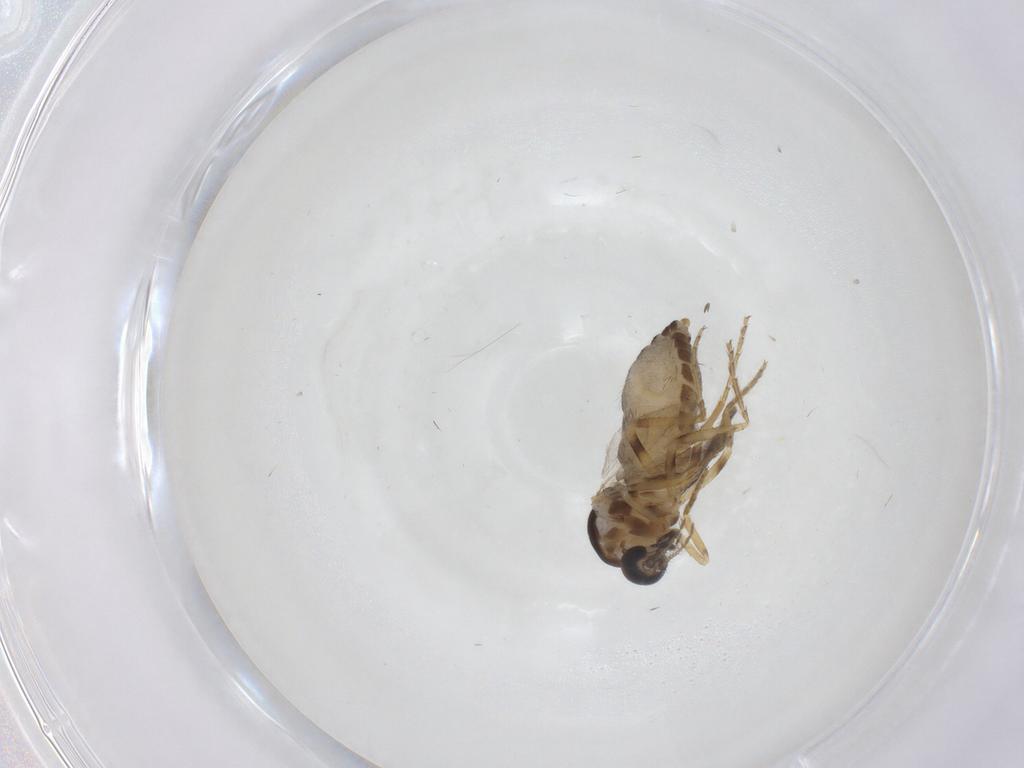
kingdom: Animalia
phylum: Arthropoda
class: Insecta
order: Diptera
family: Ceratopogonidae
